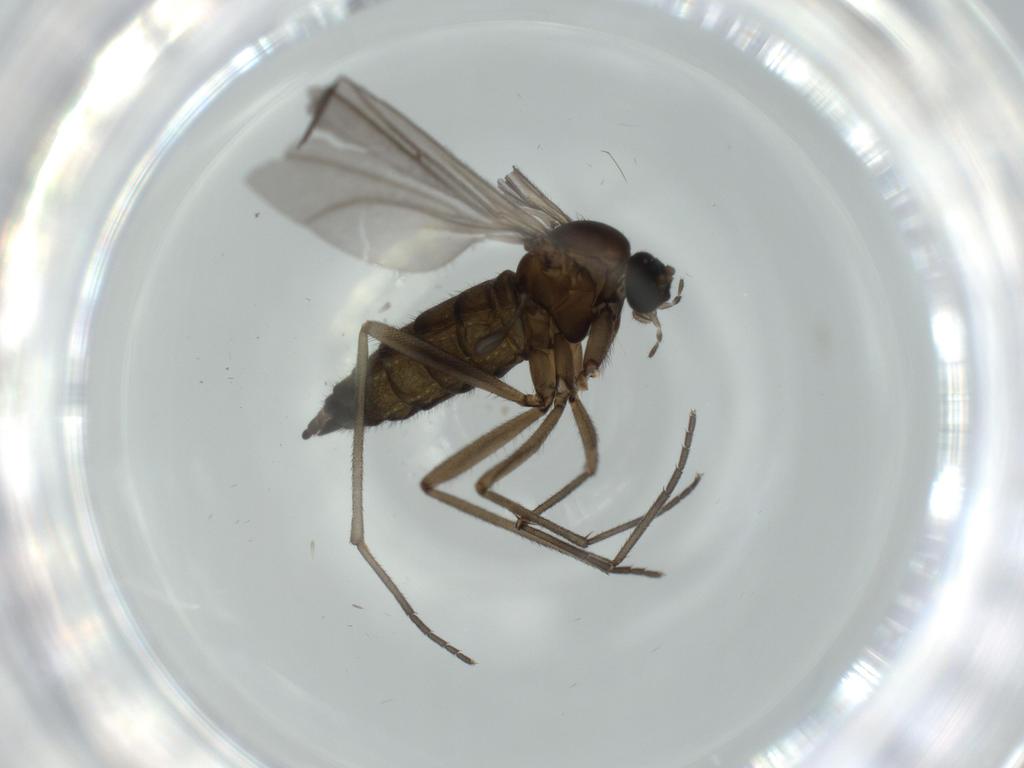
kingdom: Animalia
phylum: Arthropoda
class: Insecta
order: Diptera
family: Sciaridae
